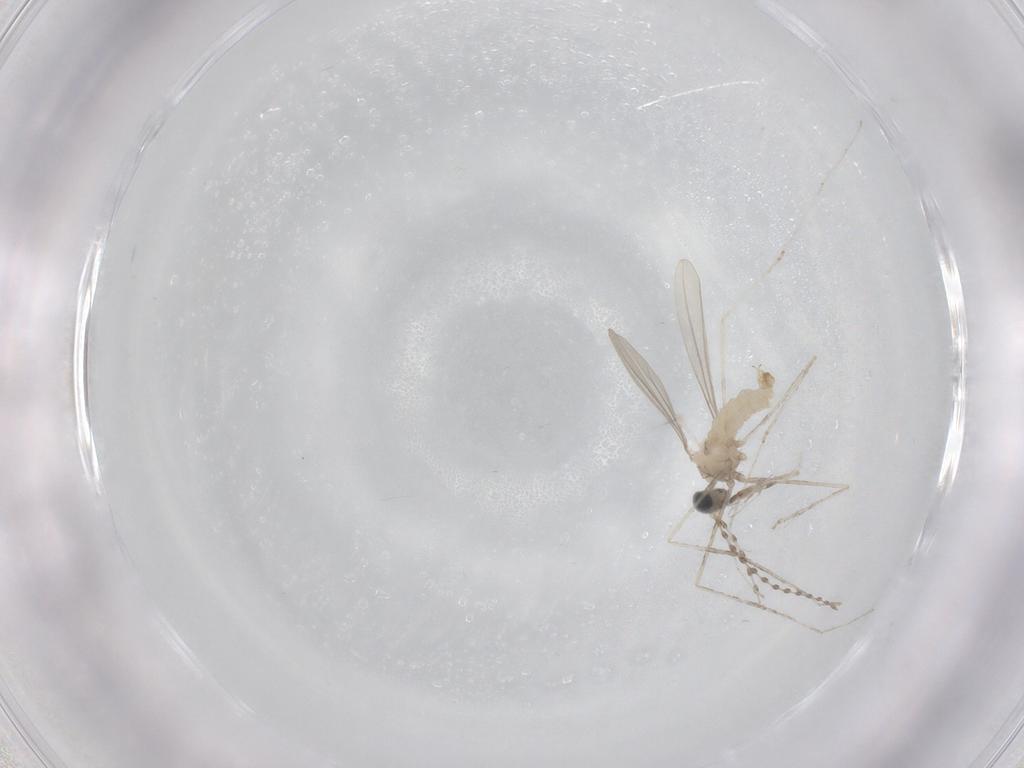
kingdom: Animalia
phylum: Arthropoda
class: Insecta
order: Diptera
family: Cecidomyiidae
